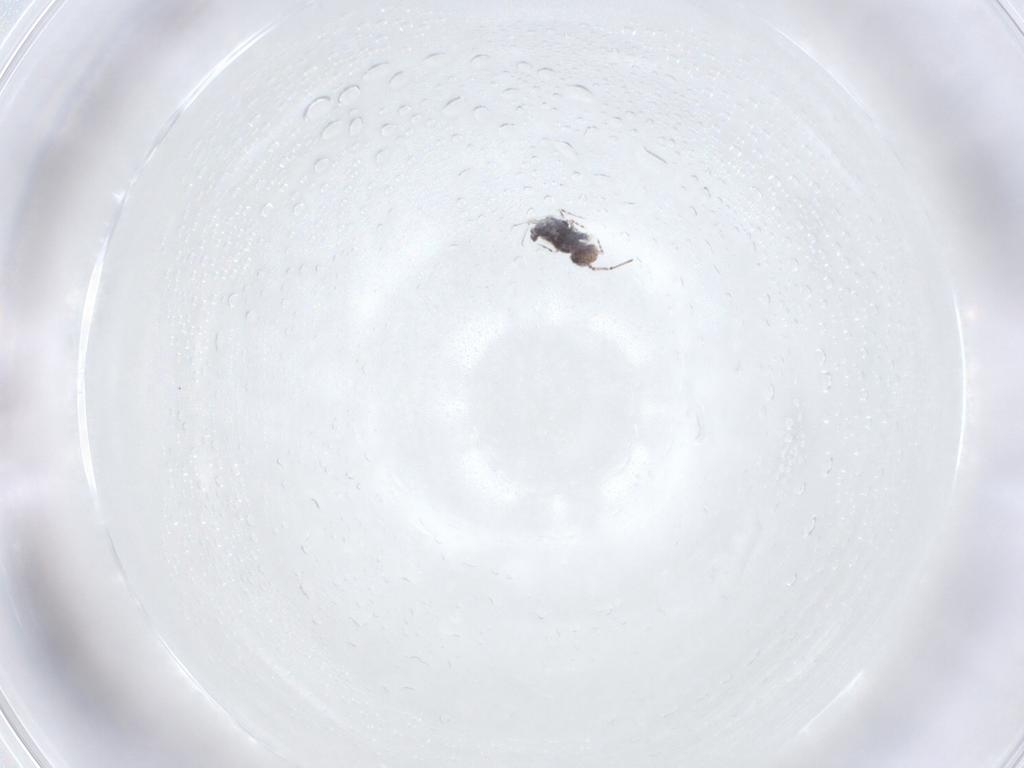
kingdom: Animalia
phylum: Arthropoda
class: Collembola
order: Symphypleona
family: Bourletiellidae
